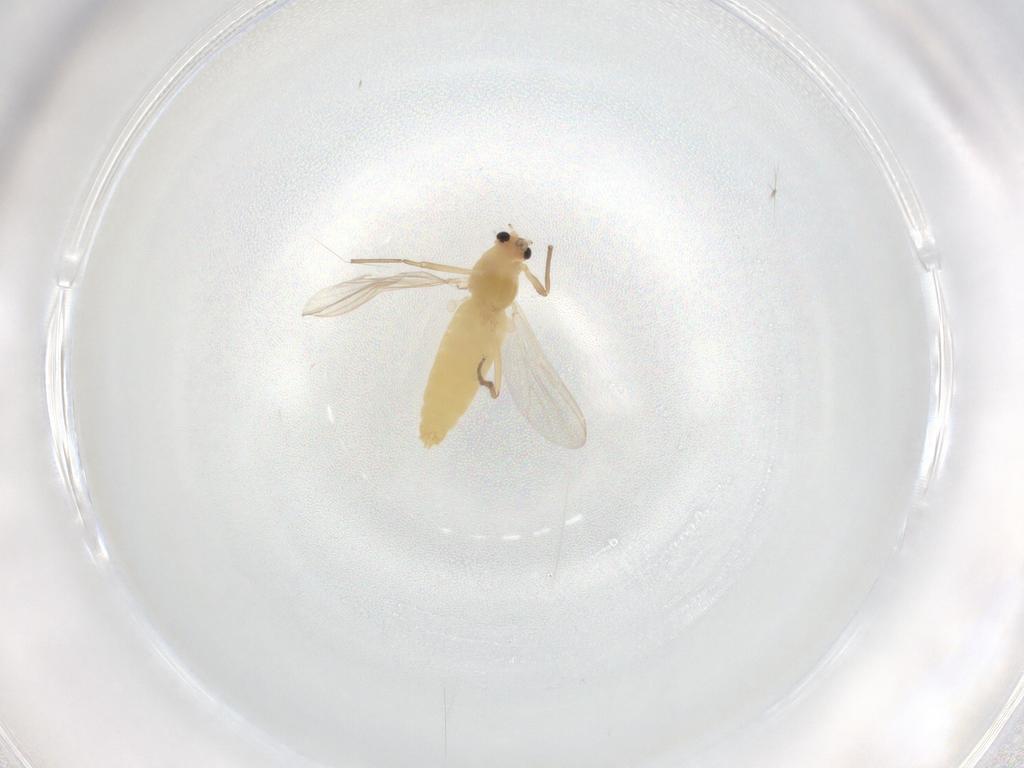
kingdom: Animalia
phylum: Arthropoda
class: Insecta
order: Diptera
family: Chironomidae
